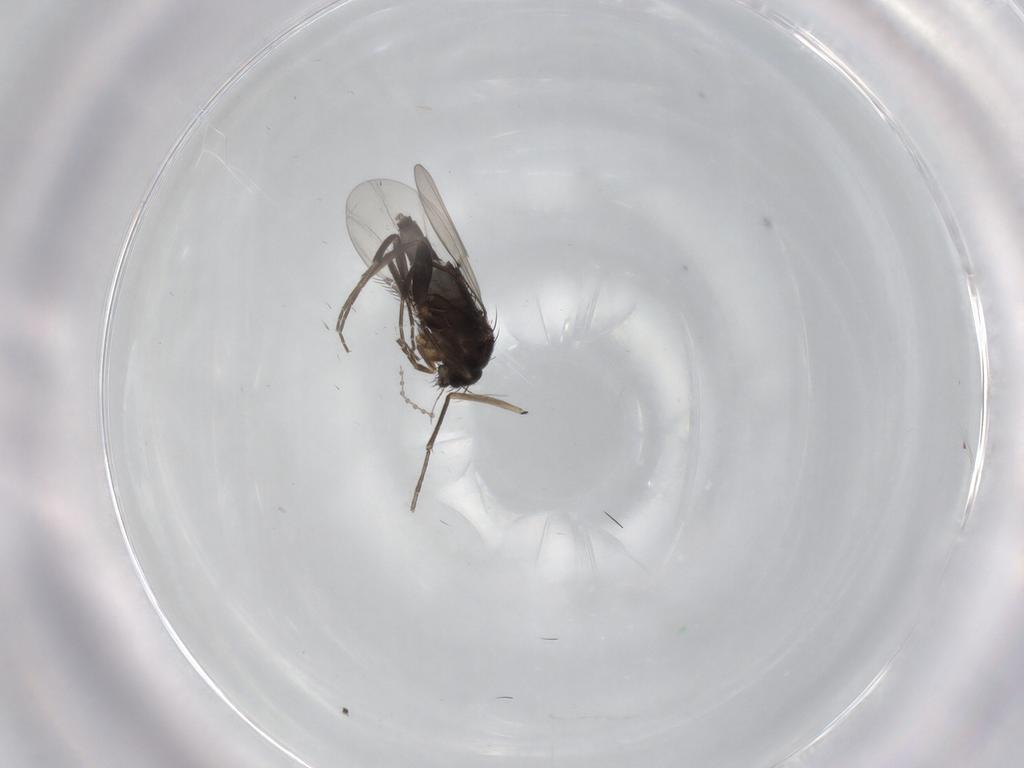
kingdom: Animalia
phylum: Arthropoda
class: Insecta
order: Diptera
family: Phoridae
